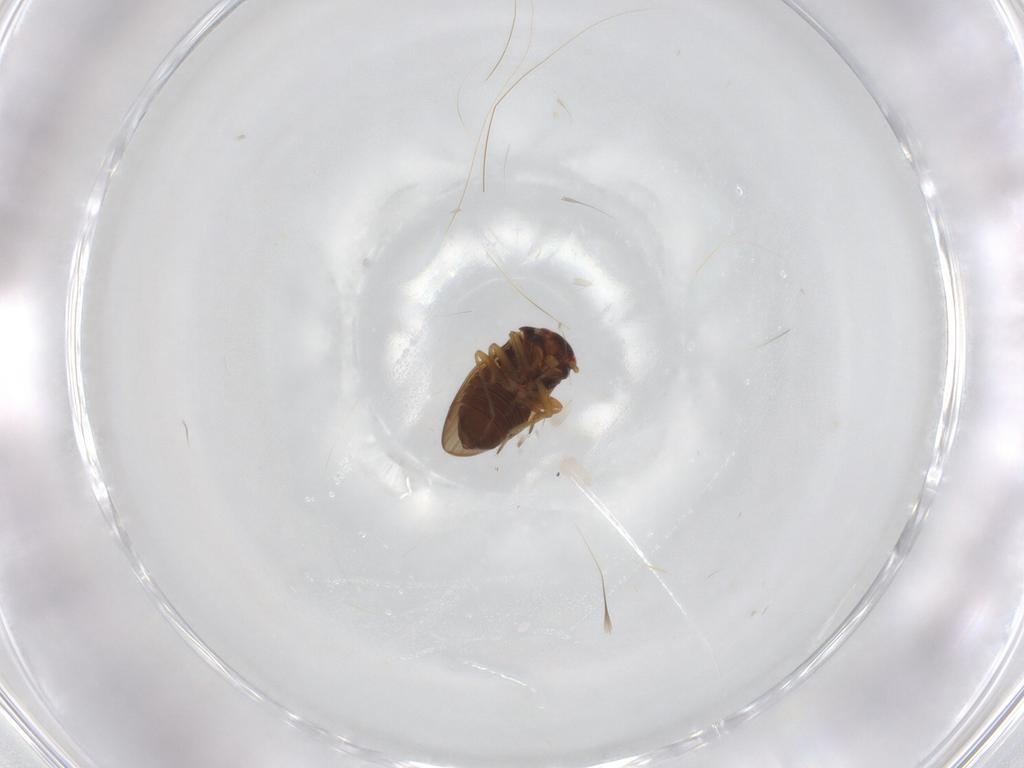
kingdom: Animalia
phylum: Arthropoda
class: Insecta
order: Hemiptera
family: Schizopteridae
